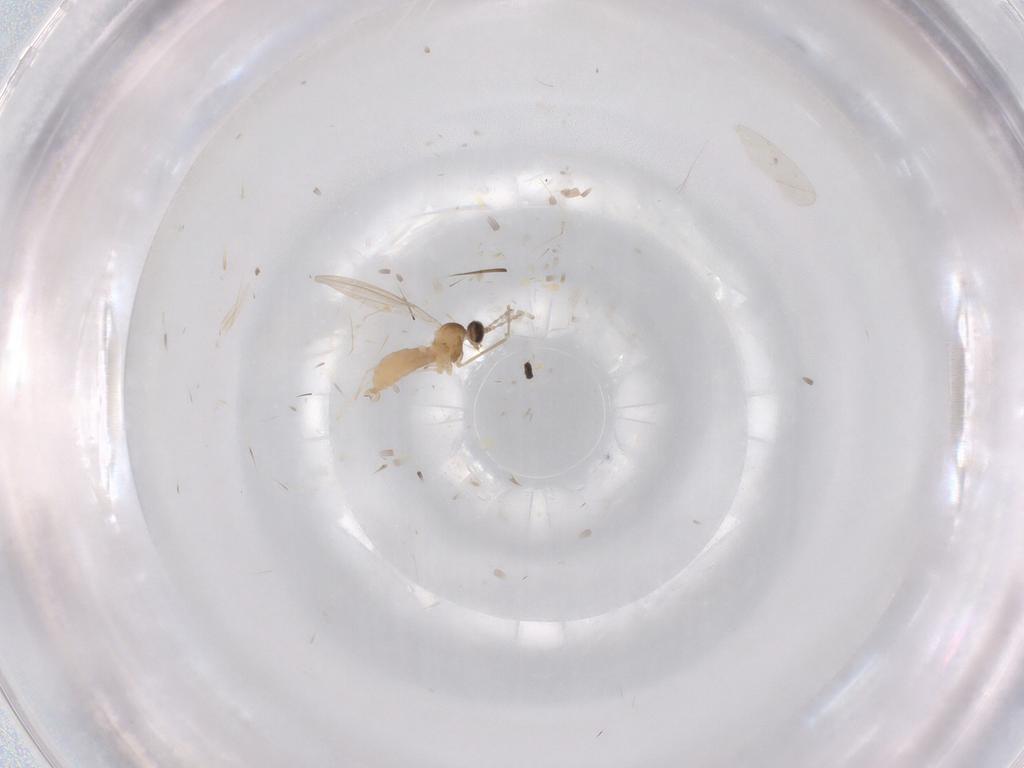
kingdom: Animalia
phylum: Arthropoda
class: Insecta
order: Diptera
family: Cecidomyiidae
